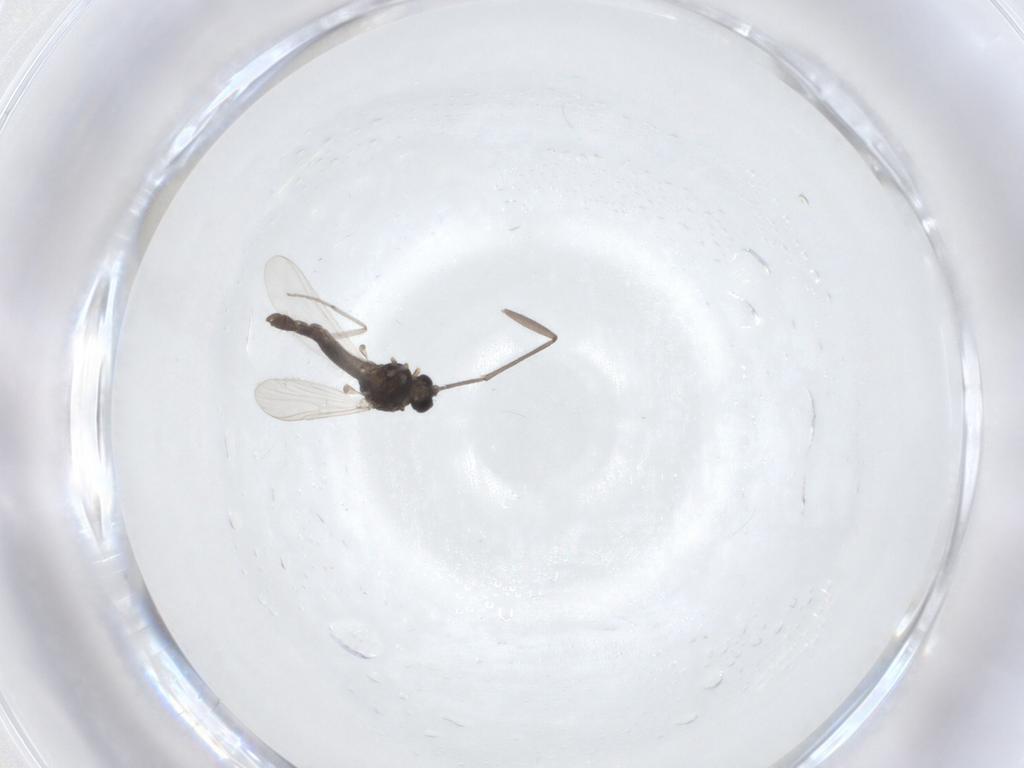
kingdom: Animalia
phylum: Arthropoda
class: Insecta
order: Diptera
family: Chironomidae
